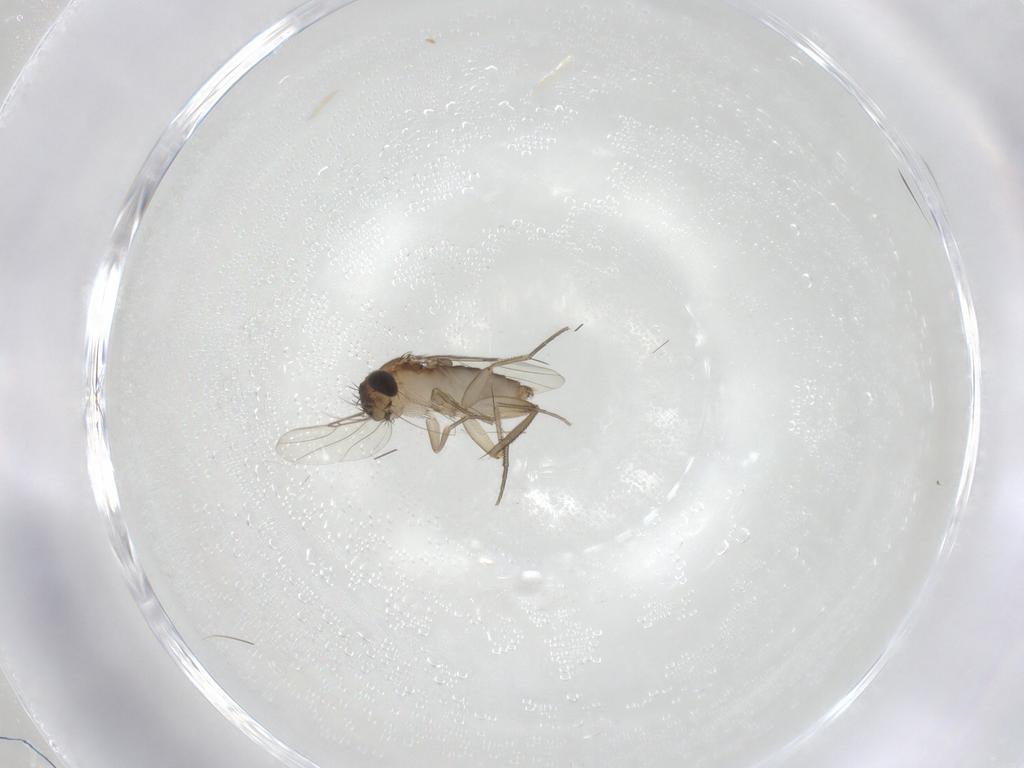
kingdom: Animalia
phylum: Arthropoda
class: Insecta
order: Diptera
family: Phoridae
